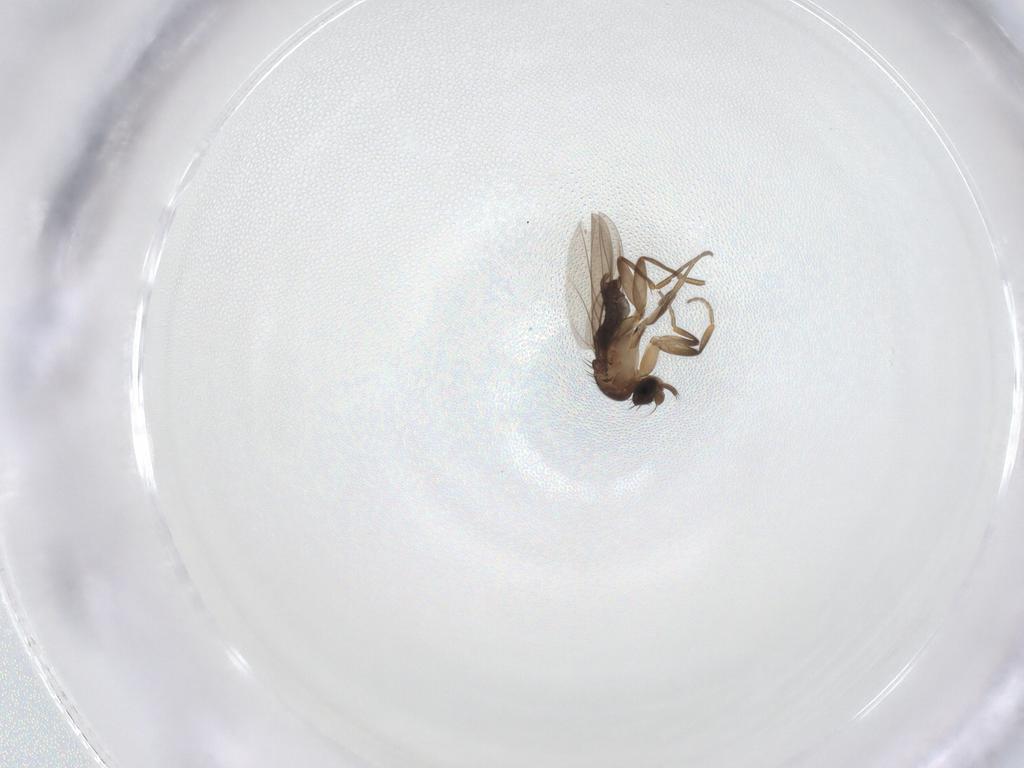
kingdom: Animalia
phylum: Arthropoda
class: Insecta
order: Diptera
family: Phoridae
